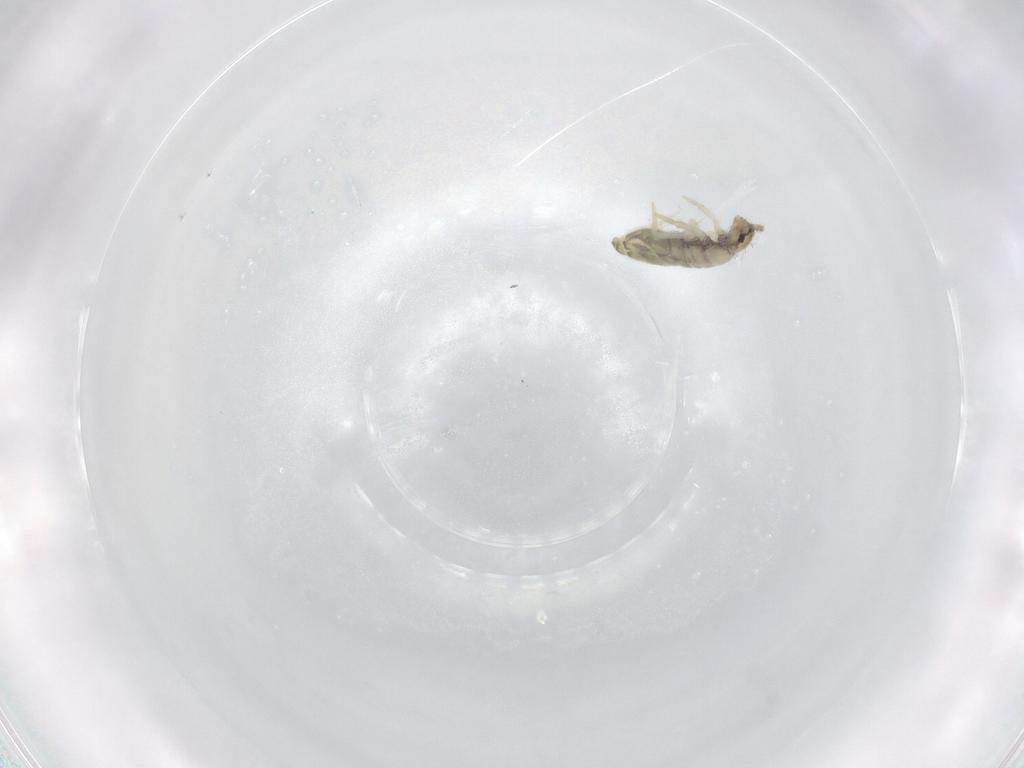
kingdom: Animalia
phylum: Arthropoda
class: Collembola
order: Entomobryomorpha
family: Entomobryidae
